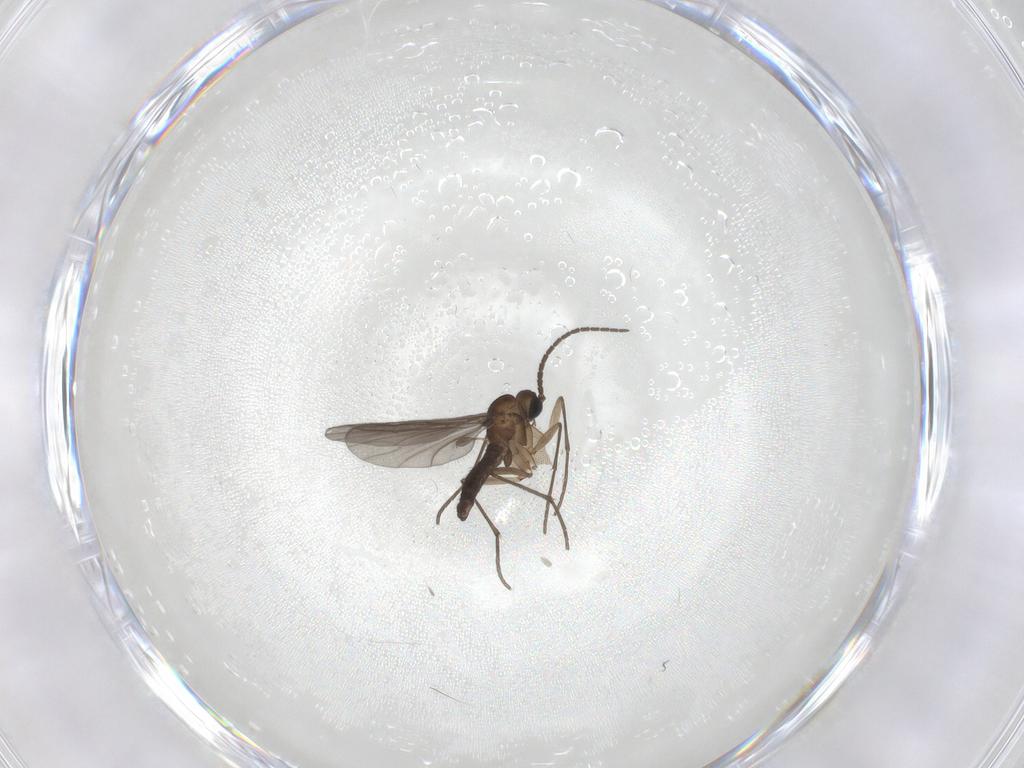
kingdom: Animalia
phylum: Arthropoda
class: Insecta
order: Diptera
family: Sciaridae
